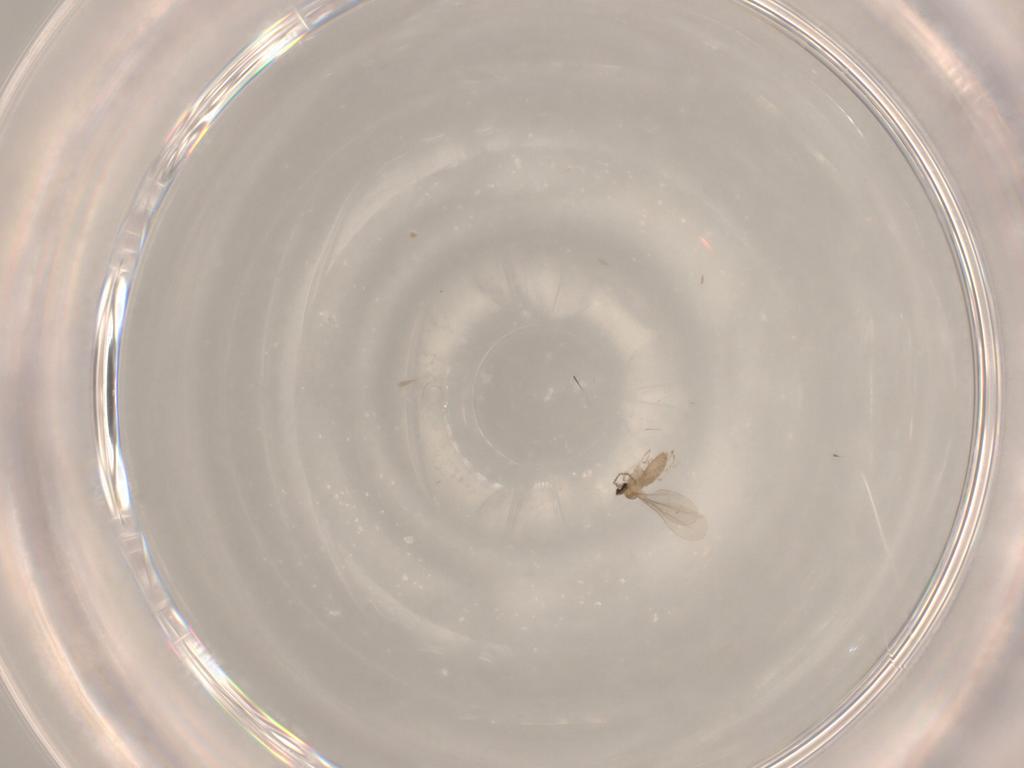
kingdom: Animalia
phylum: Arthropoda
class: Insecta
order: Diptera
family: Cecidomyiidae
